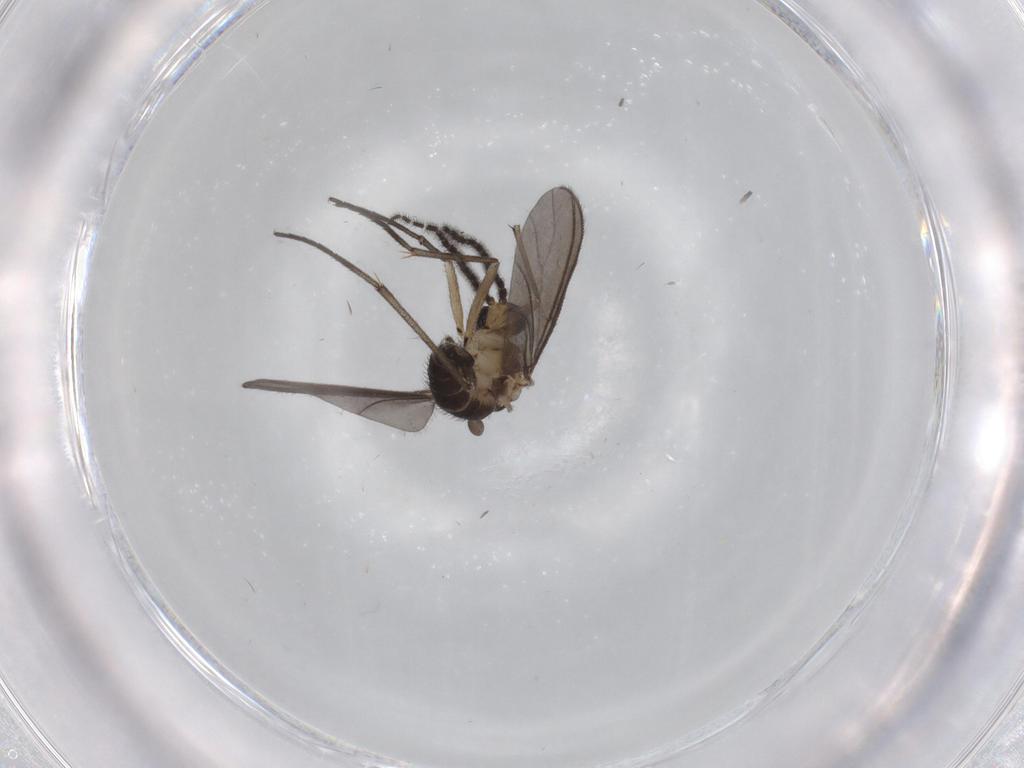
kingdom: Animalia
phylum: Arthropoda
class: Insecta
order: Diptera
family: Sciaridae
